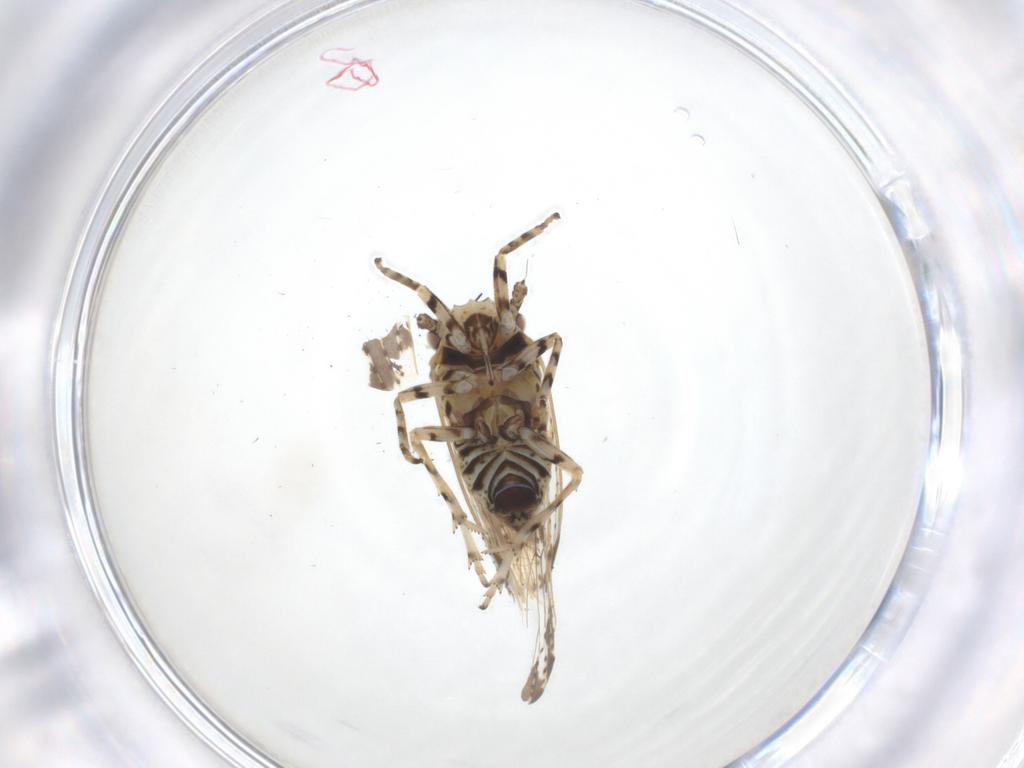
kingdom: Animalia
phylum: Arthropoda
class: Insecta
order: Hemiptera
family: Delphacidae
